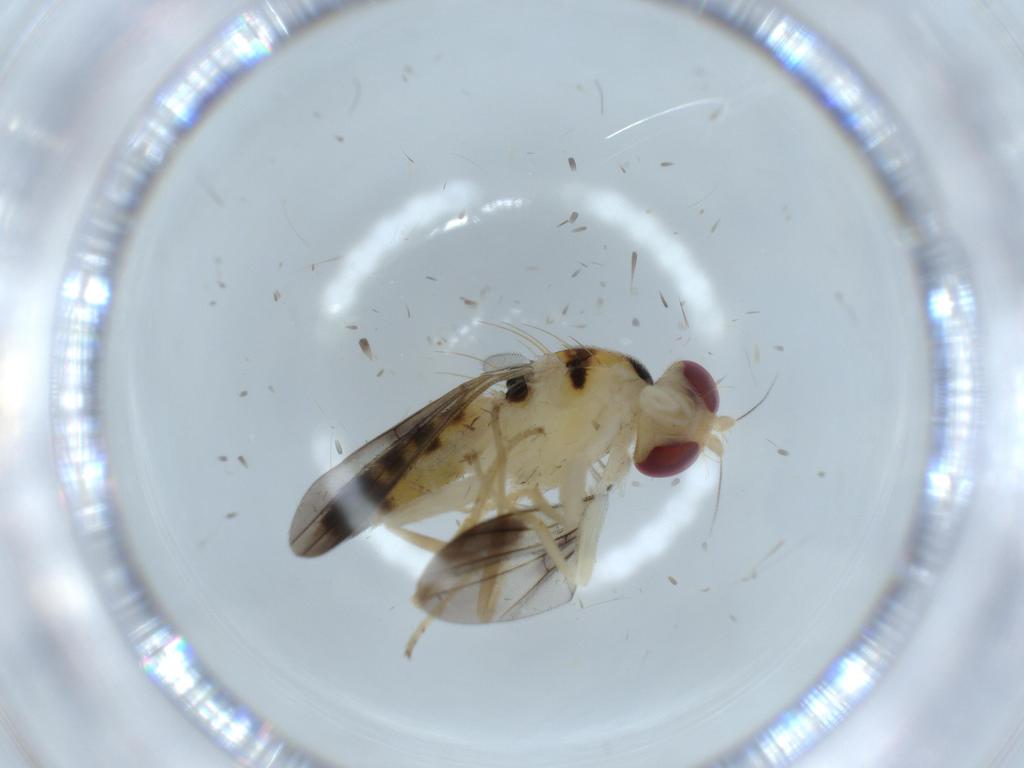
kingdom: Animalia
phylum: Arthropoda
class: Insecta
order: Diptera
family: Clusiidae
